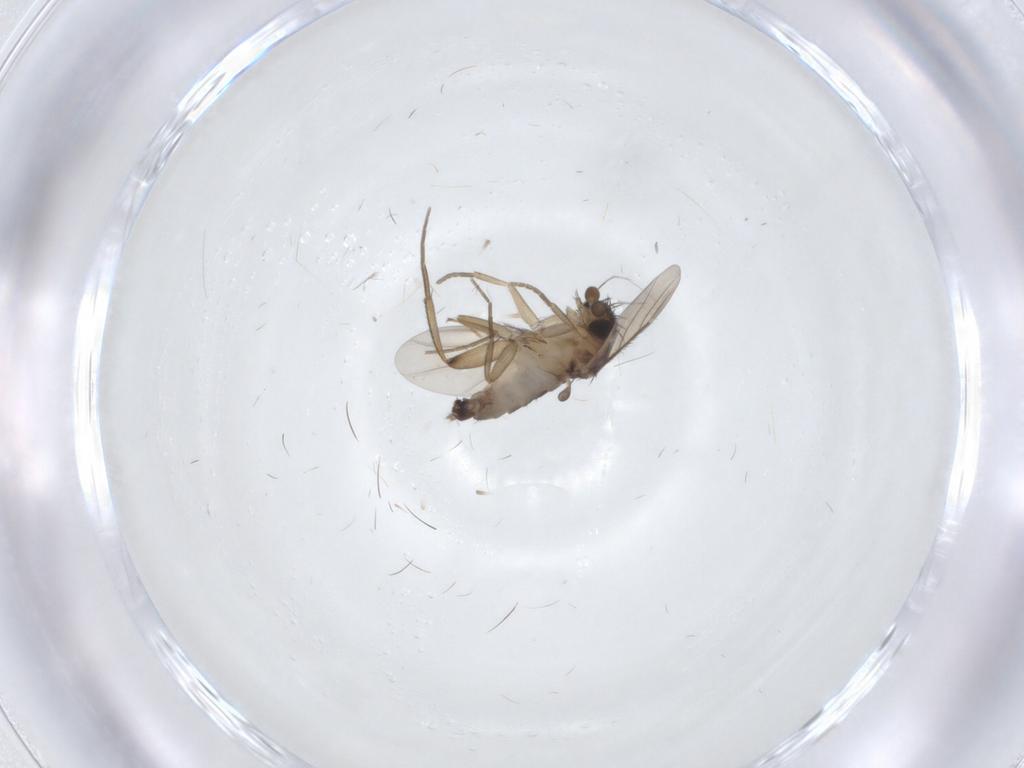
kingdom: Animalia
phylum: Arthropoda
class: Insecta
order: Diptera
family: Phoridae
